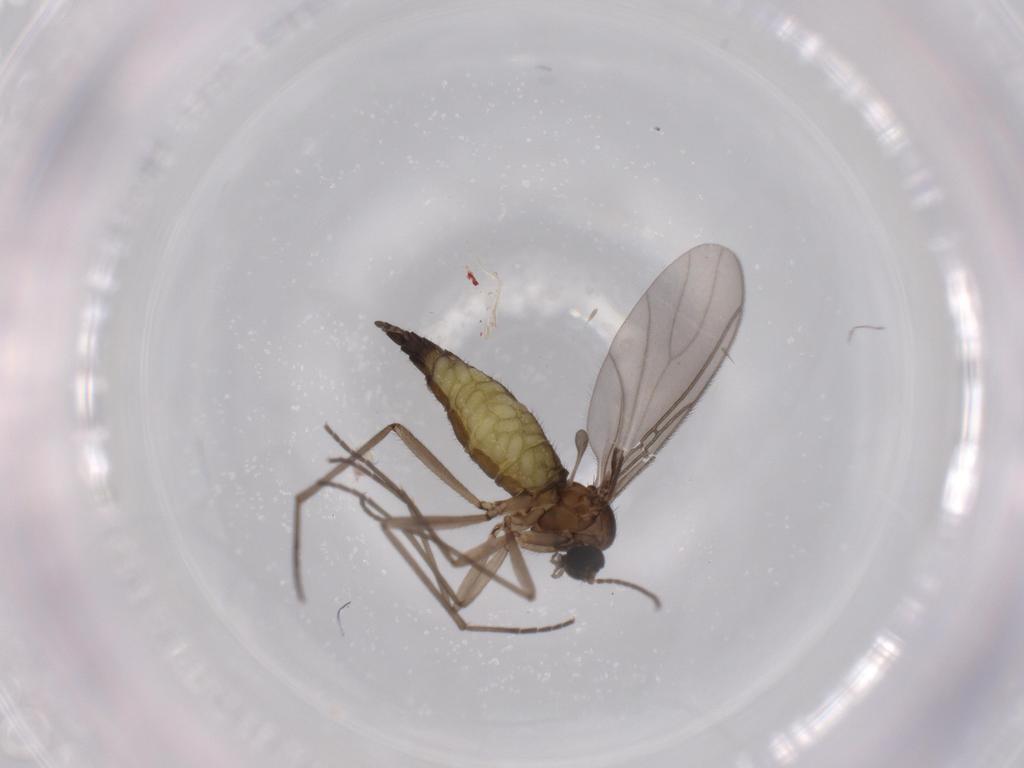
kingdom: Animalia
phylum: Arthropoda
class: Insecta
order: Diptera
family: Sciaridae
